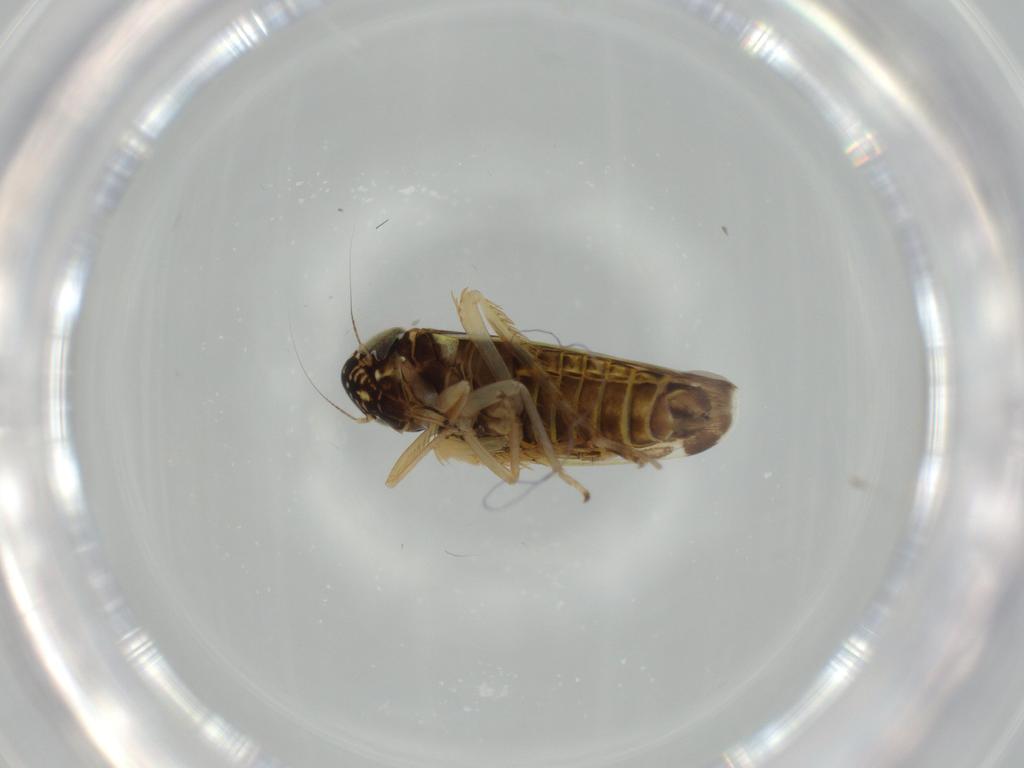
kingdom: Animalia
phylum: Arthropoda
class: Insecta
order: Hemiptera
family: Cicadellidae
